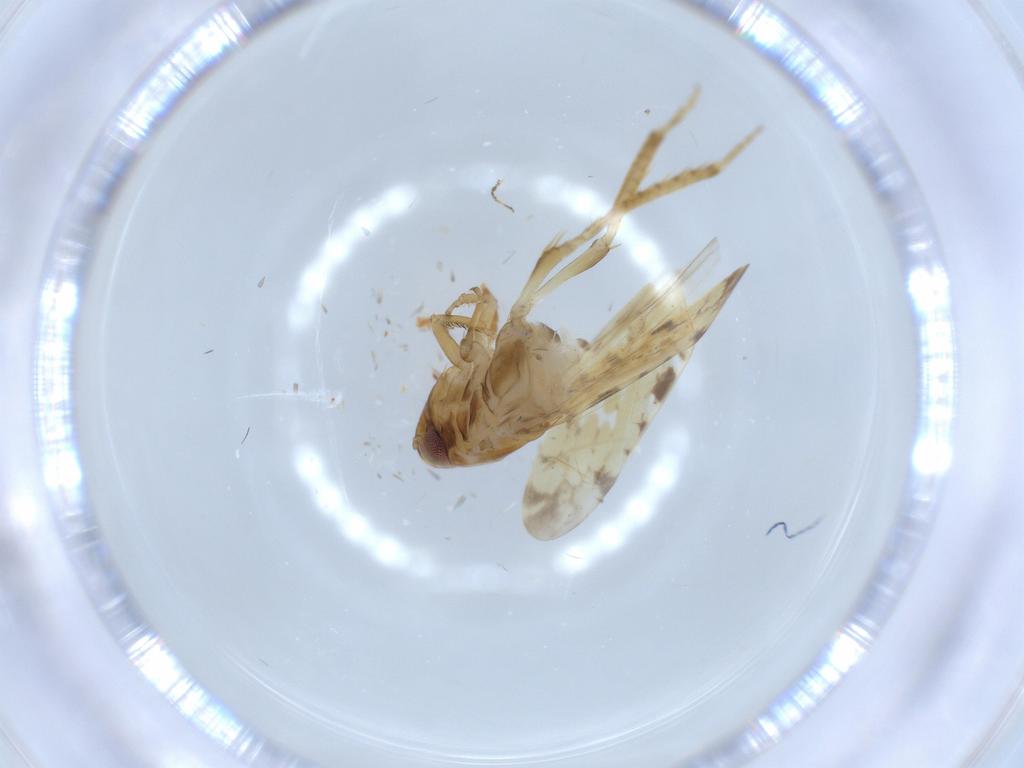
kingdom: Animalia
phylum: Arthropoda
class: Insecta
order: Hemiptera
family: Cicadellidae
